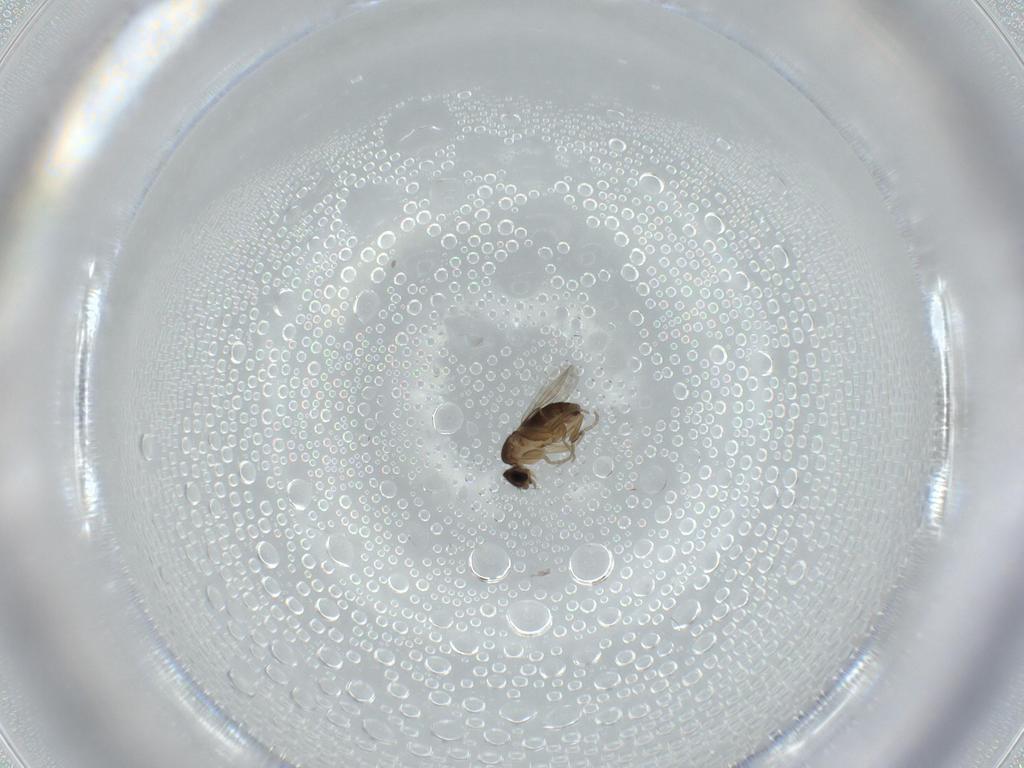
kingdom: Animalia
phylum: Arthropoda
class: Insecta
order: Diptera
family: Phoridae
